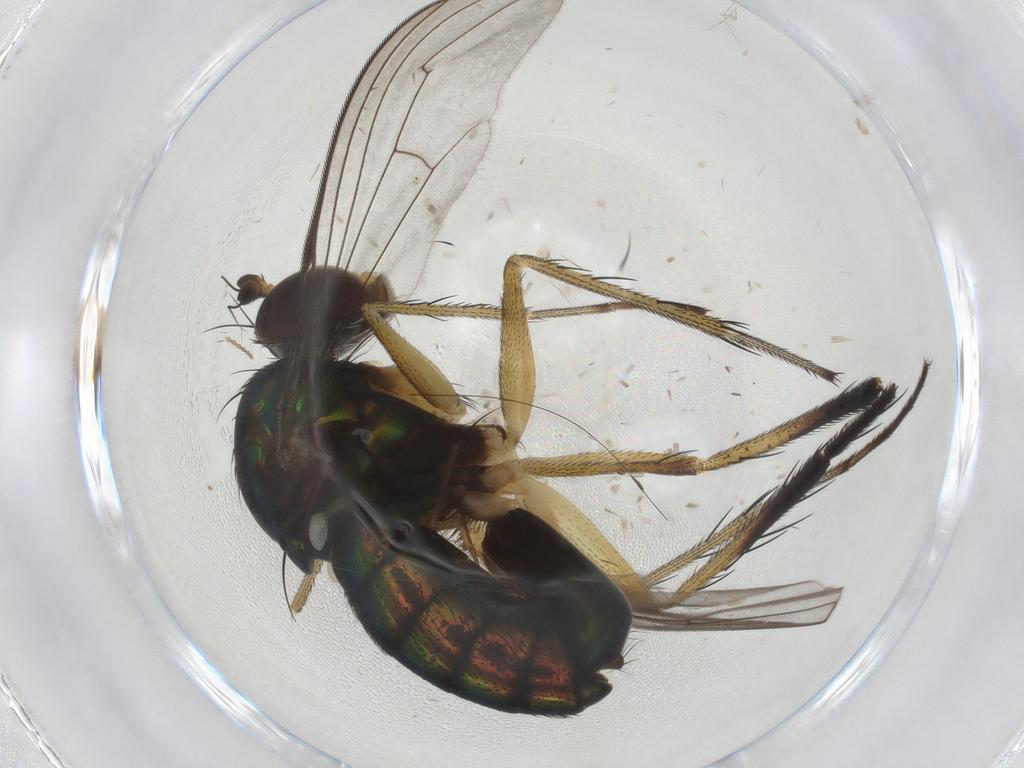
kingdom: Animalia
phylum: Arthropoda
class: Insecta
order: Diptera
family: Dolichopodidae
